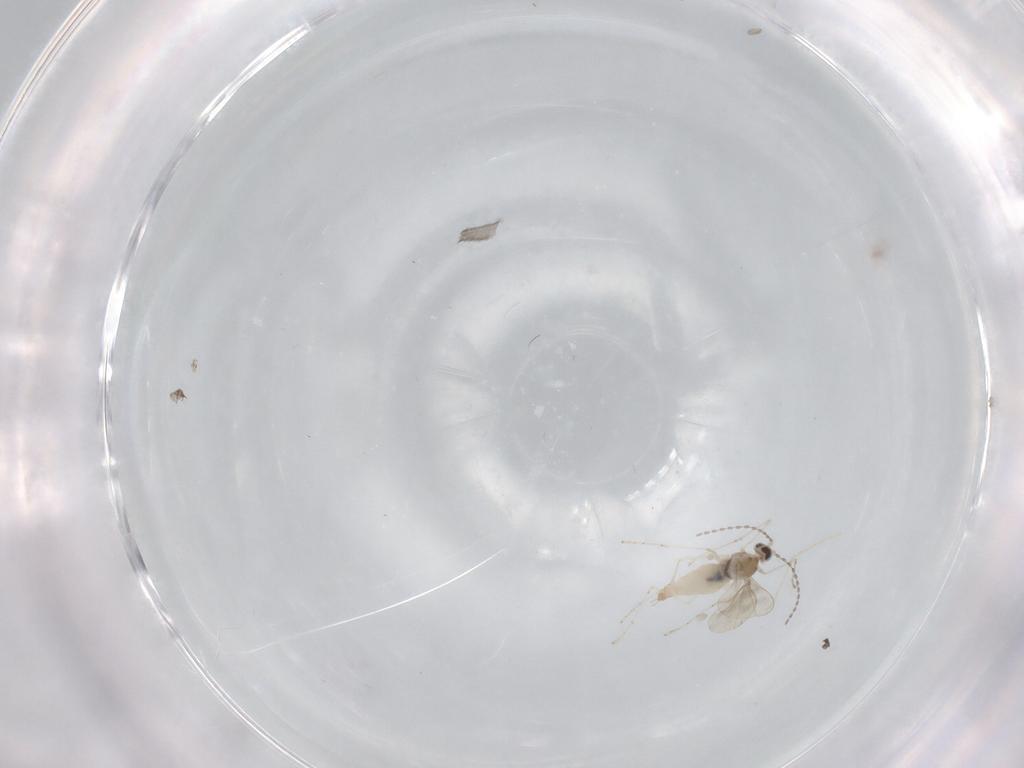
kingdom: Animalia
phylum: Arthropoda
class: Insecta
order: Diptera
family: Cecidomyiidae
